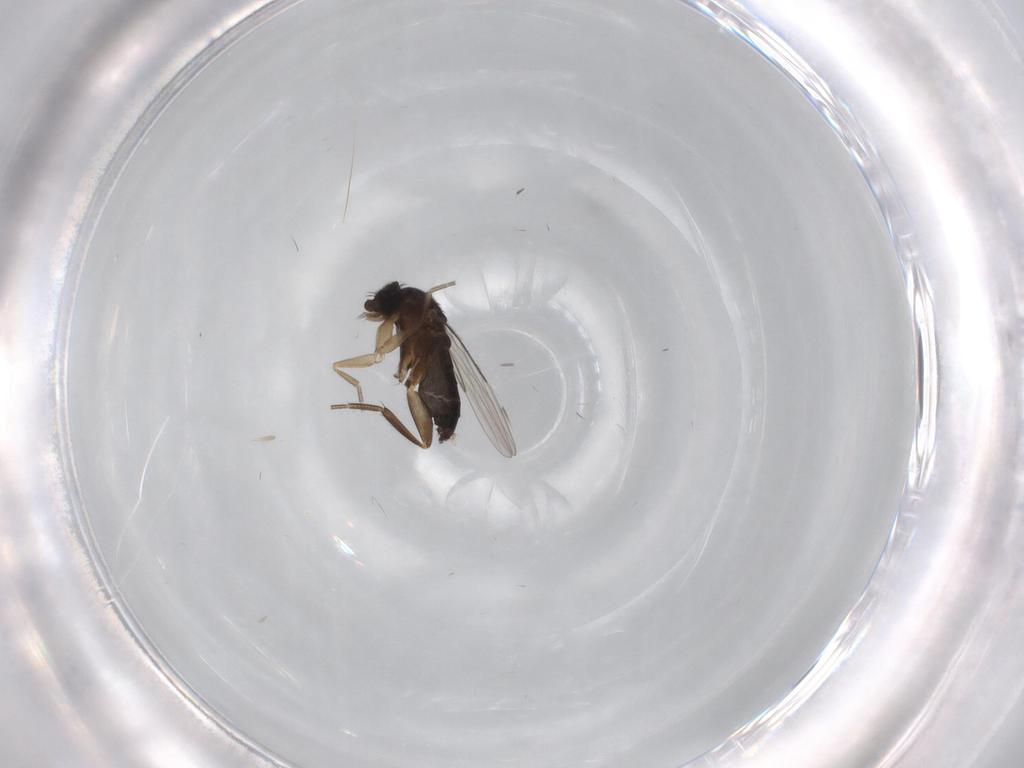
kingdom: Animalia
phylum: Arthropoda
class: Insecta
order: Diptera
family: Phoridae
